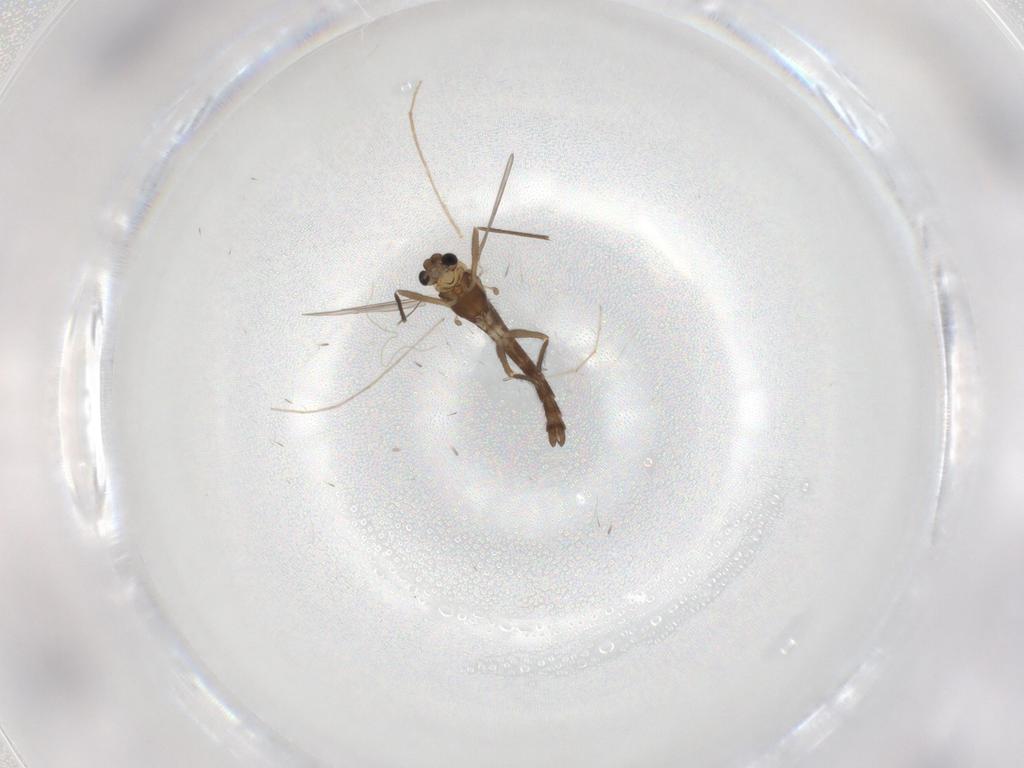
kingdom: Animalia
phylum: Arthropoda
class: Insecta
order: Diptera
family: Chironomidae
